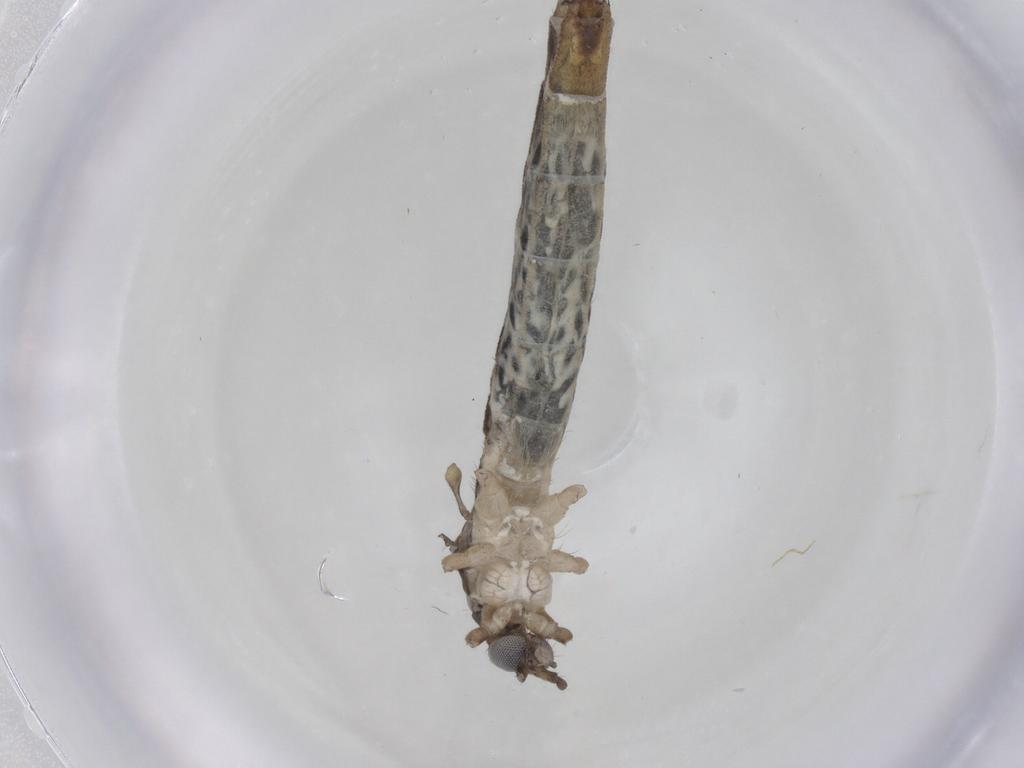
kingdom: Animalia
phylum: Arthropoda
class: Insecta
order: Diptera
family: Limoniidae
